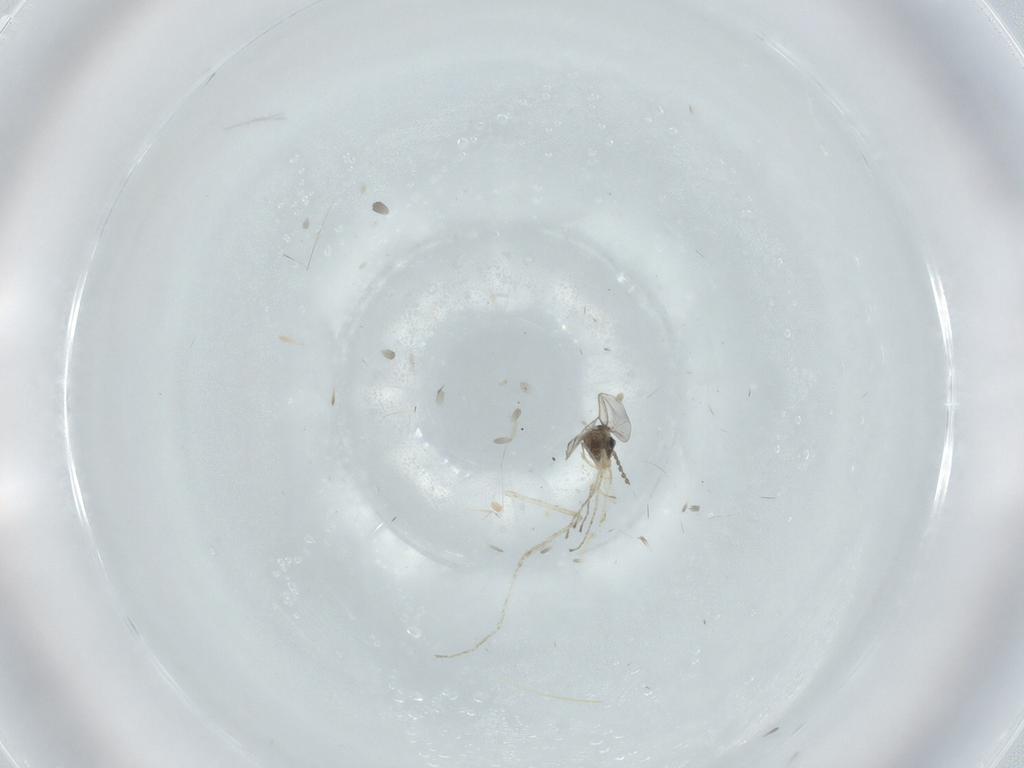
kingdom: Animalia
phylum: Arthropoda
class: Insecta
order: Diptera
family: Cecidomyiidae
